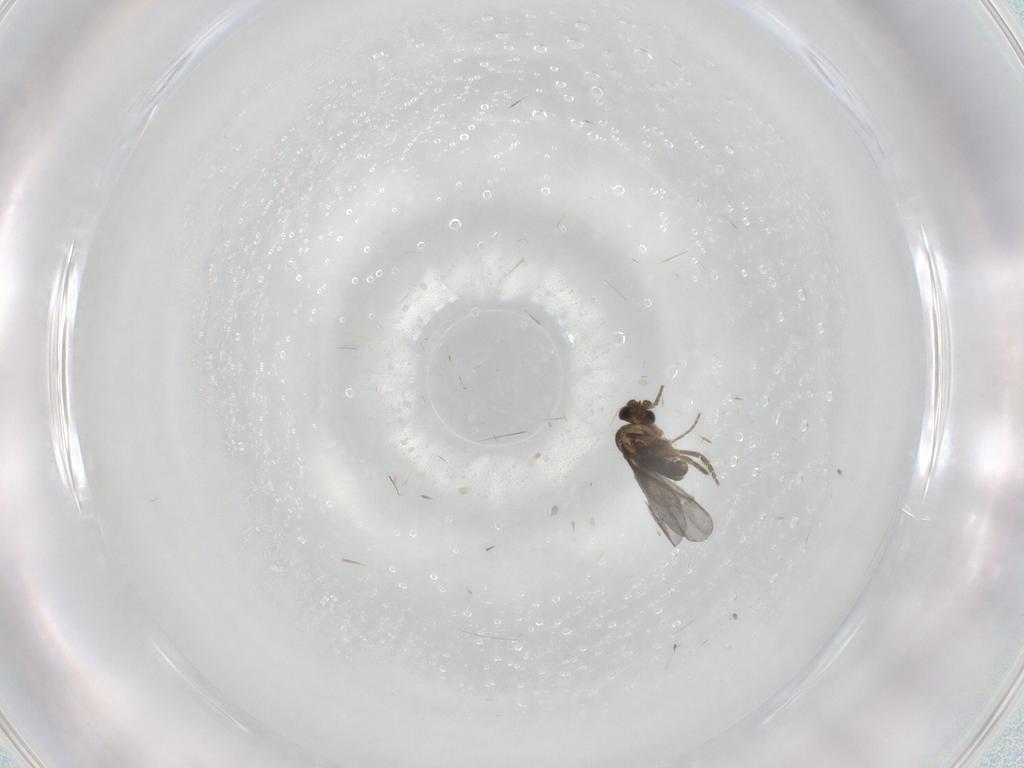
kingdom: Animalia
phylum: Arthropoda
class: Insecta
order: Diptera
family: Phoridae
